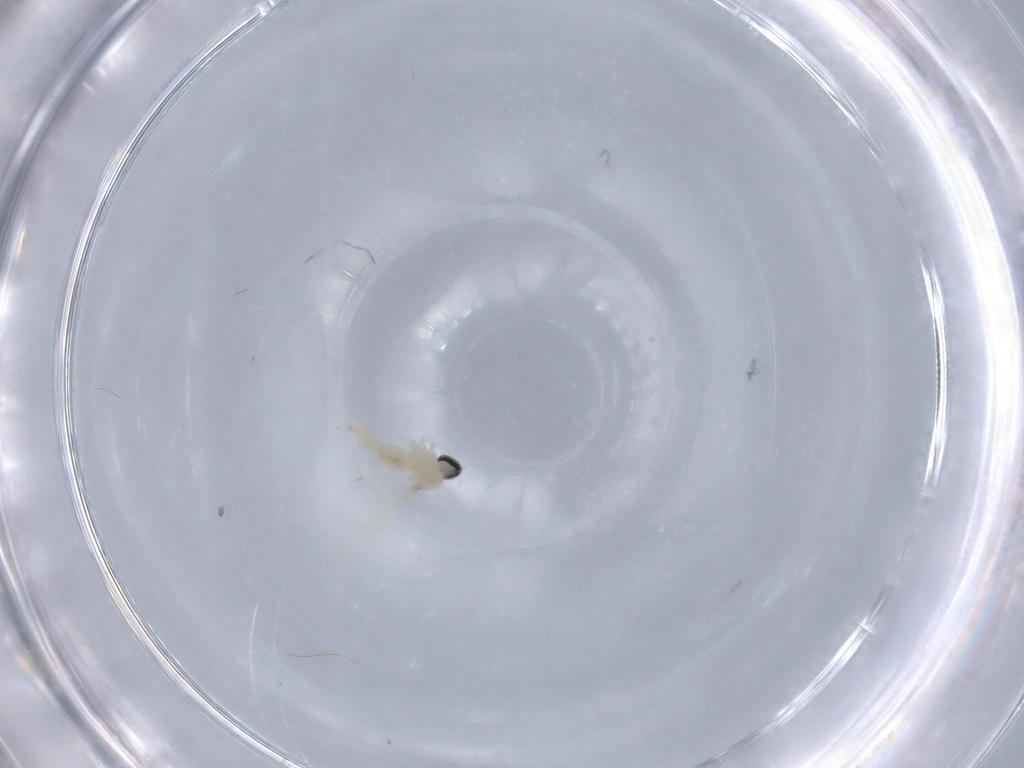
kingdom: Animalia
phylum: Arthropoda
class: Insecta
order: Diptera
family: Cecidomyiidae
